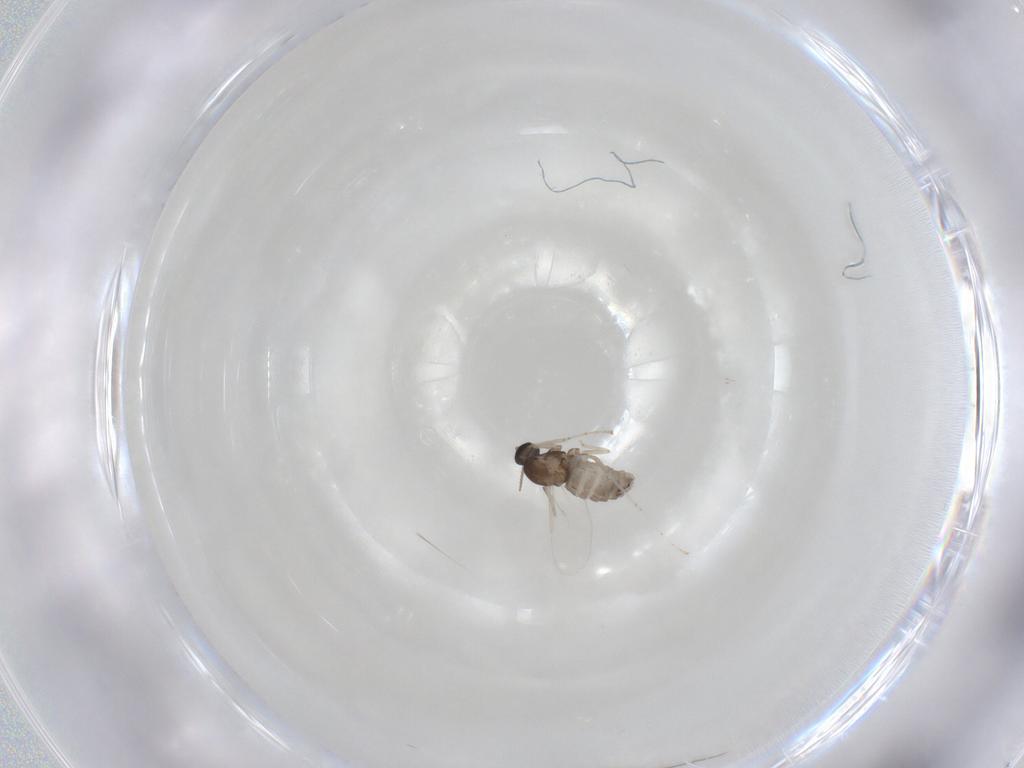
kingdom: Animalia
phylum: Arthropoda
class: Insecta
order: Diptera
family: Cecidomyiidae
